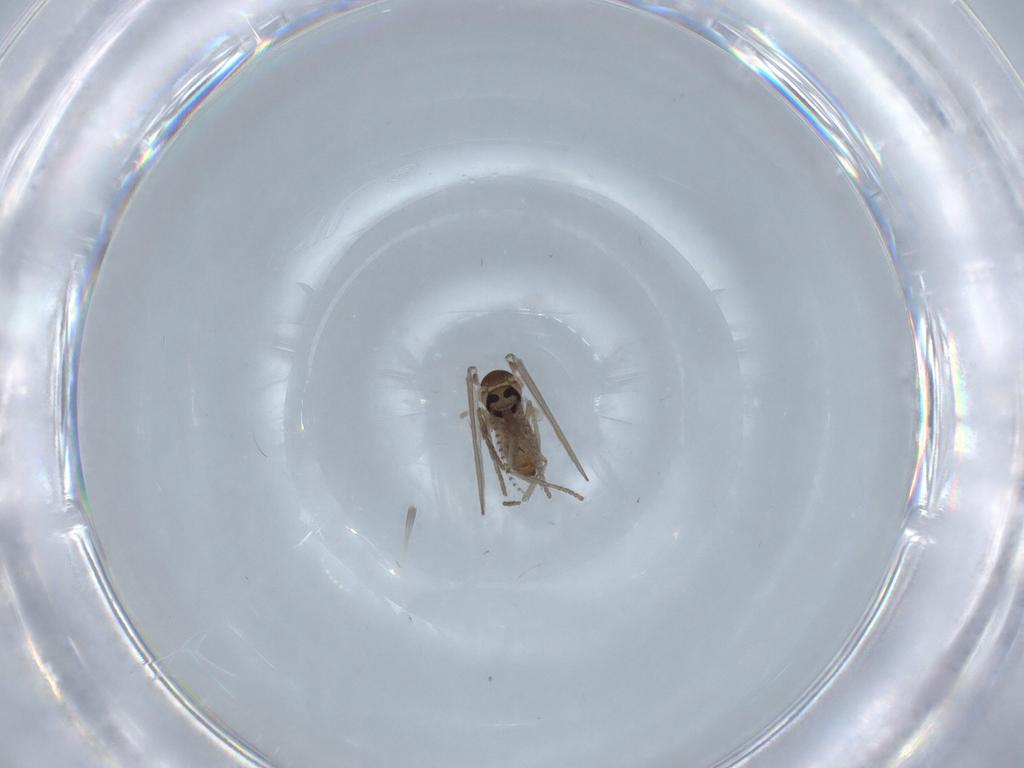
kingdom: Animalia
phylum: Arthropoda
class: Insecta
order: Diptera
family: Psychodidae
